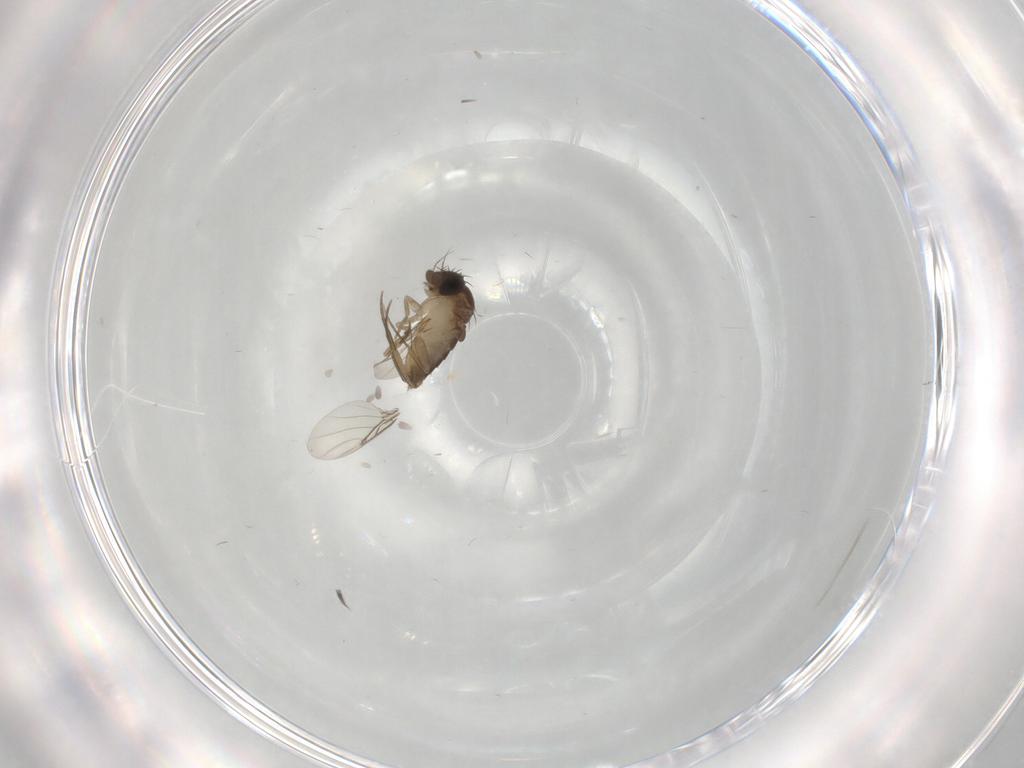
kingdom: Animalia
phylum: Arthropoda
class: Insecta
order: Diptera
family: Phoridae
